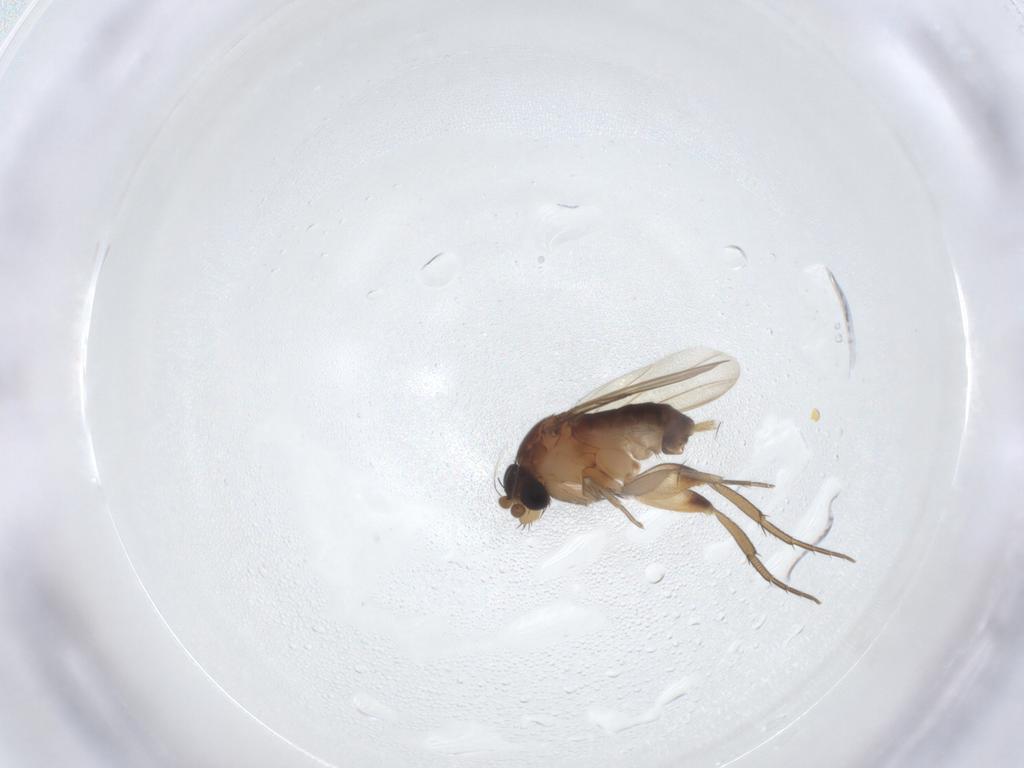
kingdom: Animalia
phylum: Arthropoda
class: Insecta
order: Diptera
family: Phoridae
